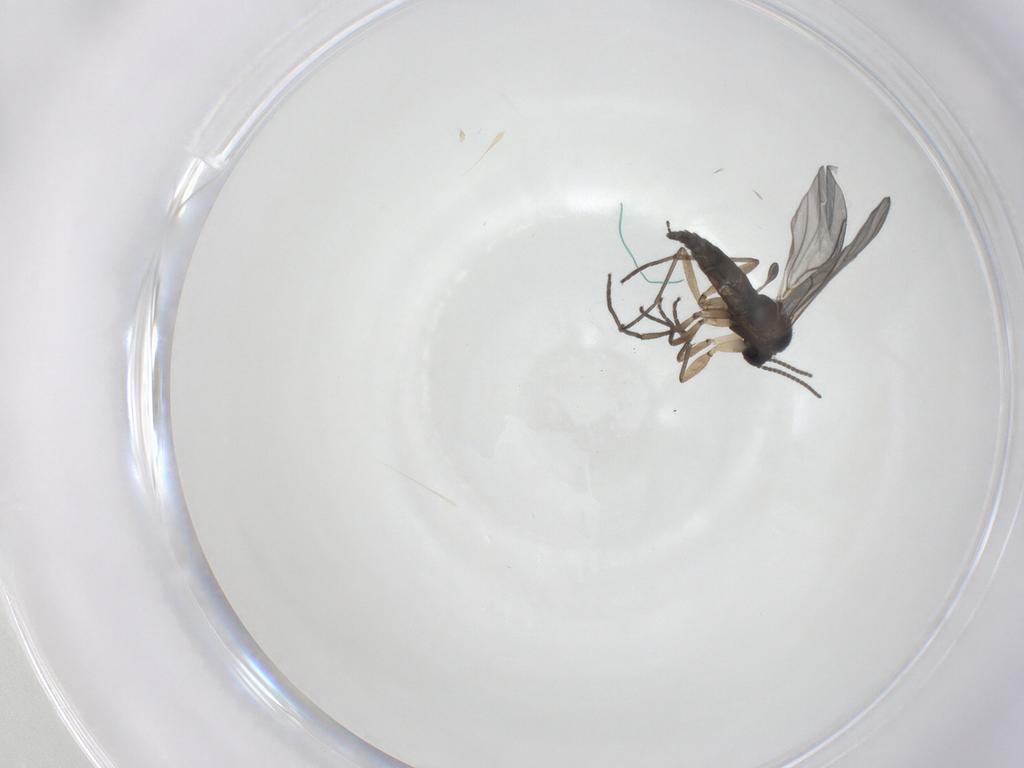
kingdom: Animalia
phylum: Arthropoda
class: Insecta
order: Diptera
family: Sciaridae
